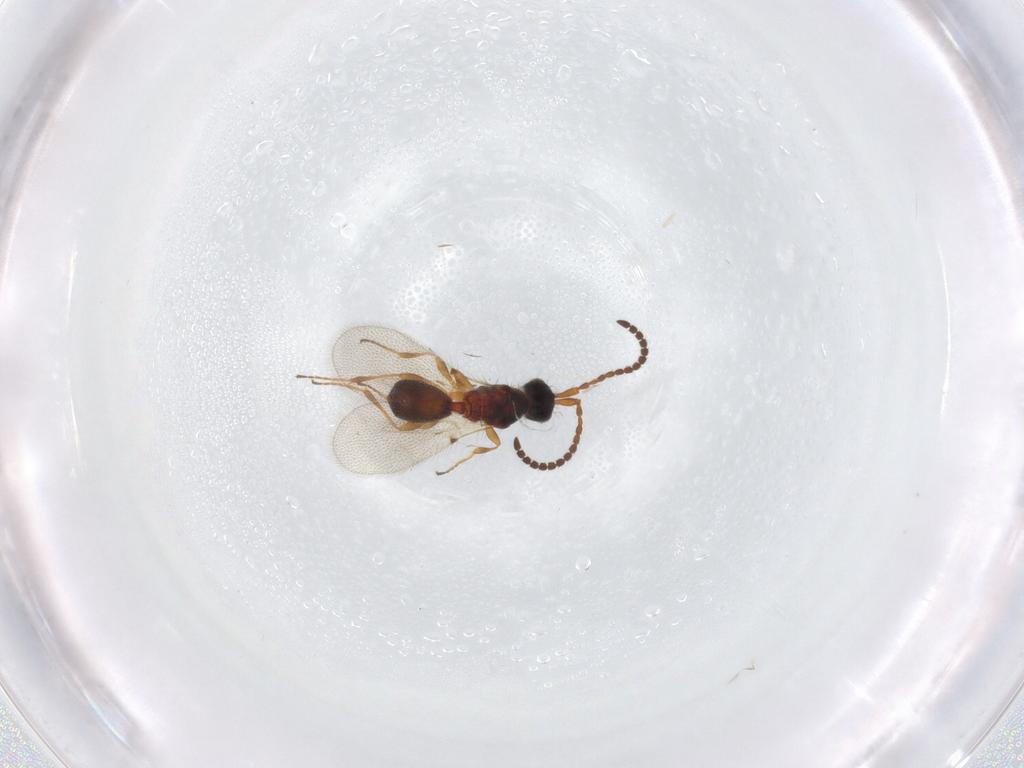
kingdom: Animalia
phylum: Arthropoda
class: Insecta
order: Hymenoptera
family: Diapriidae
